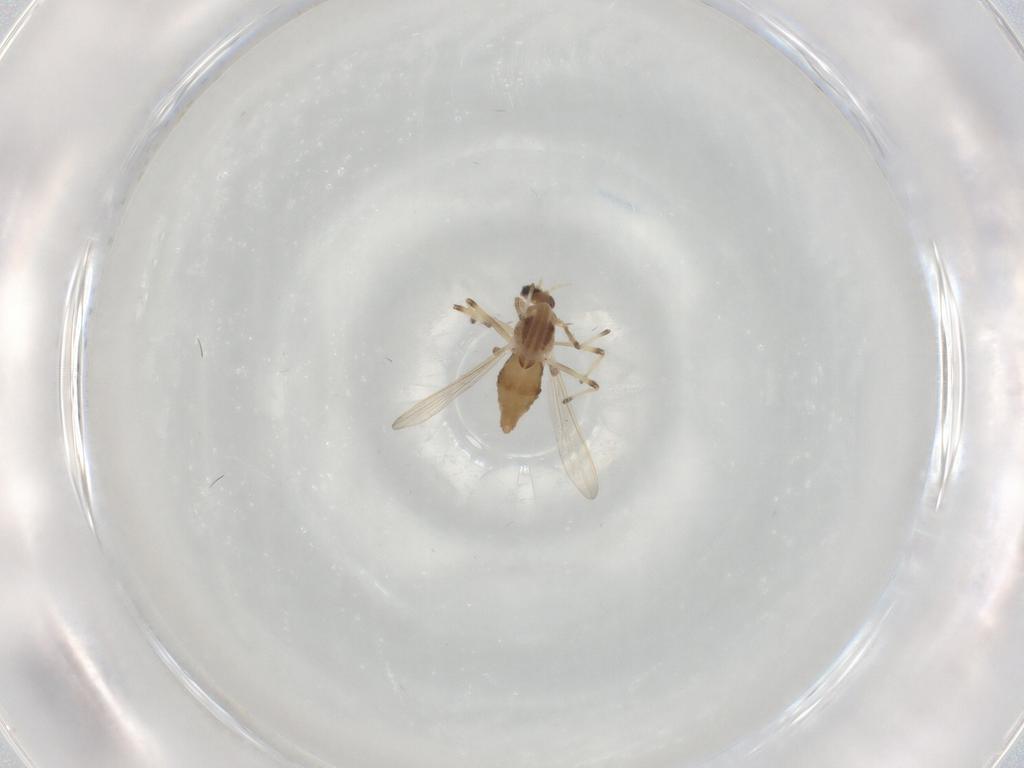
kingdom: Animalia
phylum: Arthropoda
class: Insecta
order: Diptera
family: Chironomidae
